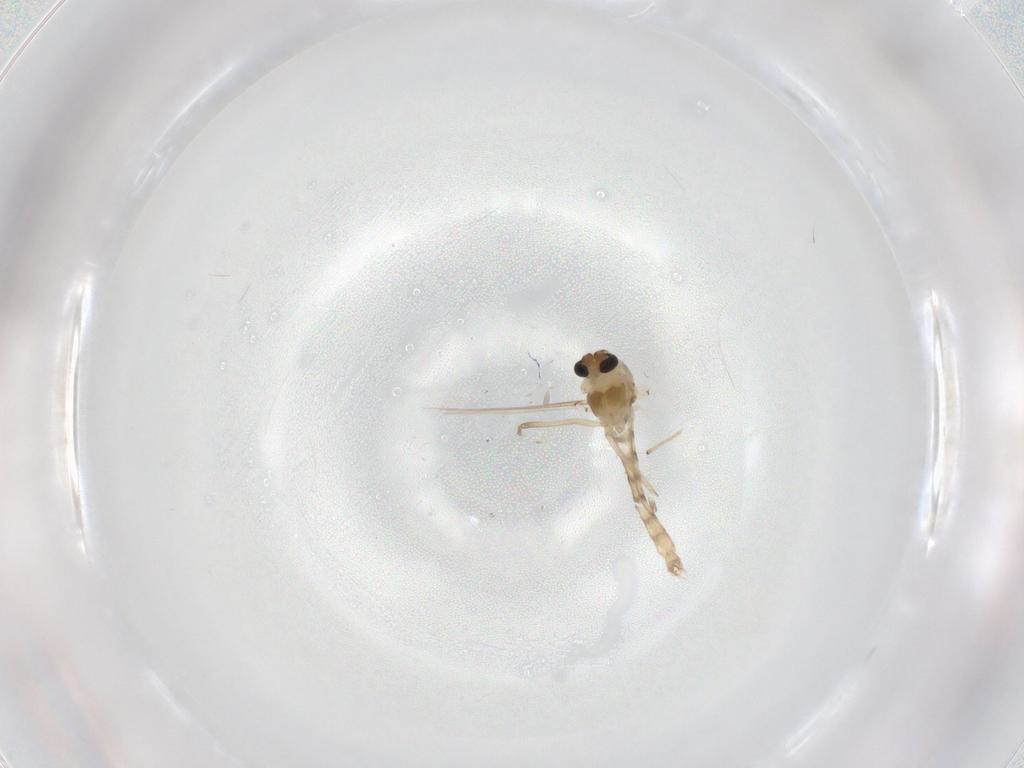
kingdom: Animalia
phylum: Arthropoda
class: Insecta
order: Diptera
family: Chironomidae
